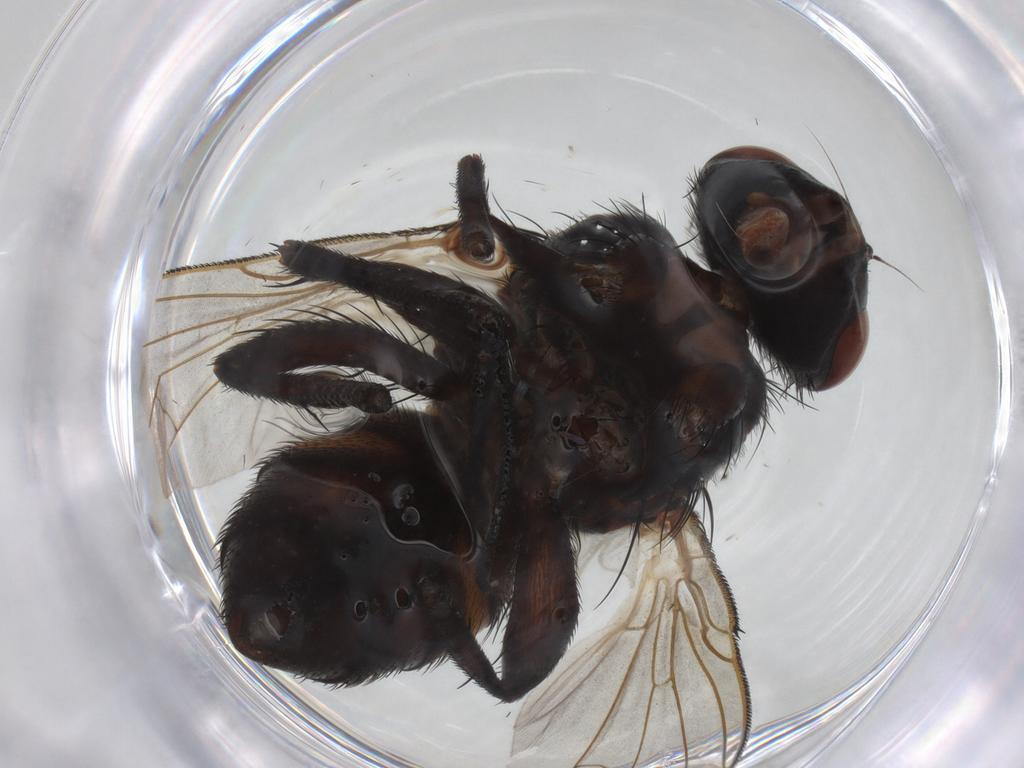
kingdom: Animalia
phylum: Arthropoda
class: Insecta
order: Diptera
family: Calliphoridae
